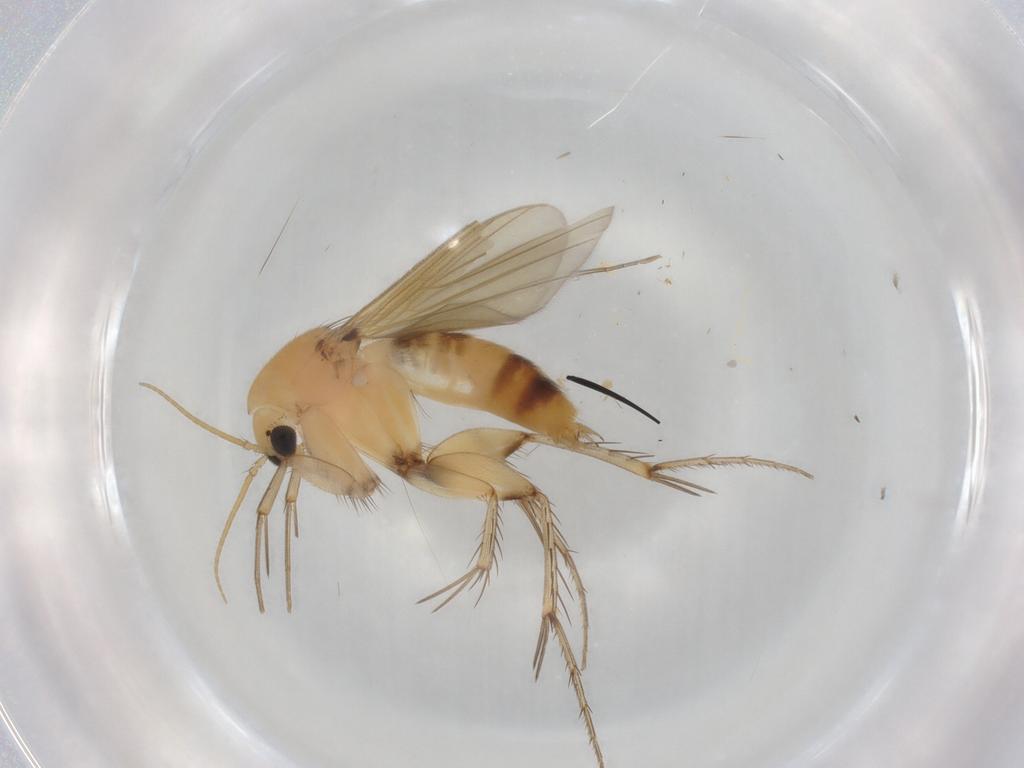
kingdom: Animalia
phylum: Arthropoda
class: Insecta
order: Diptera
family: Mycetophilidae
